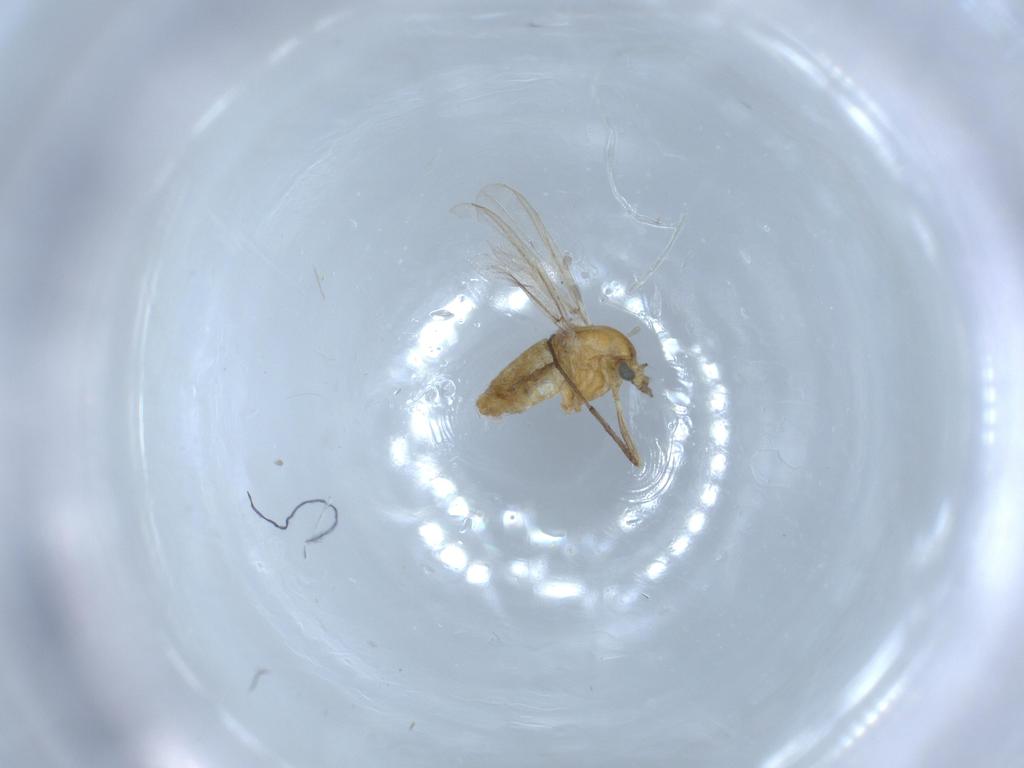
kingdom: Animalia
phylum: Arthropoda
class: Insecta
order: Diptera
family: Chironomidae
